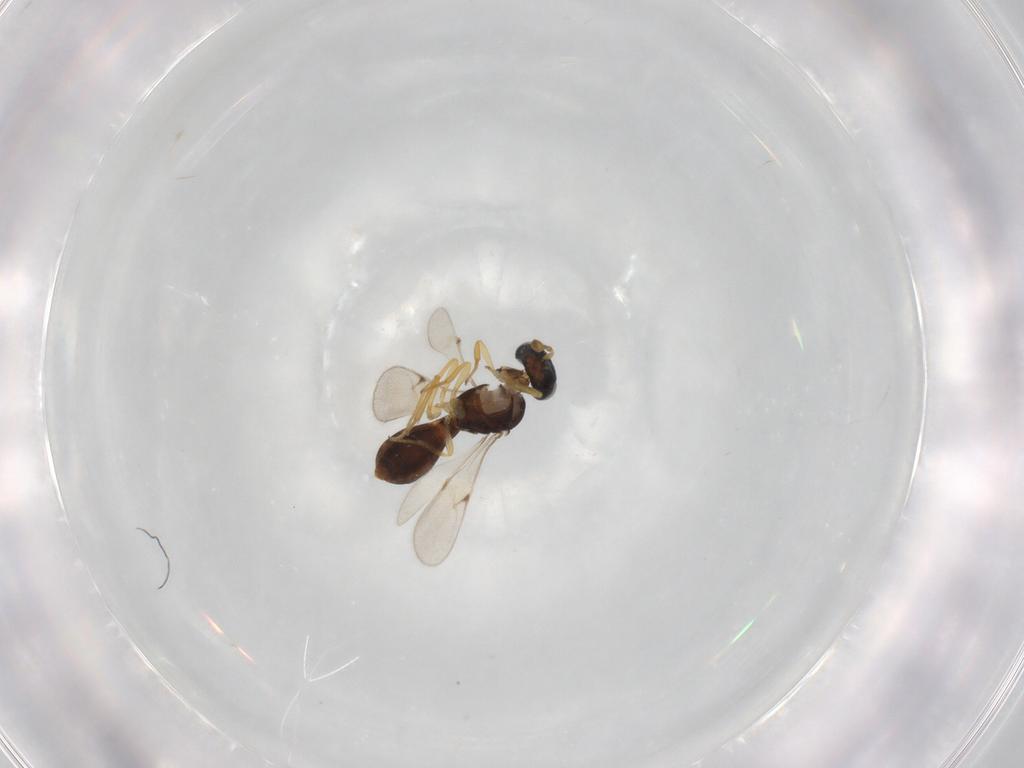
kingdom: Animalia
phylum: Arthropoda
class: Insecta
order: Hymenoptera
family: Scelionidae
